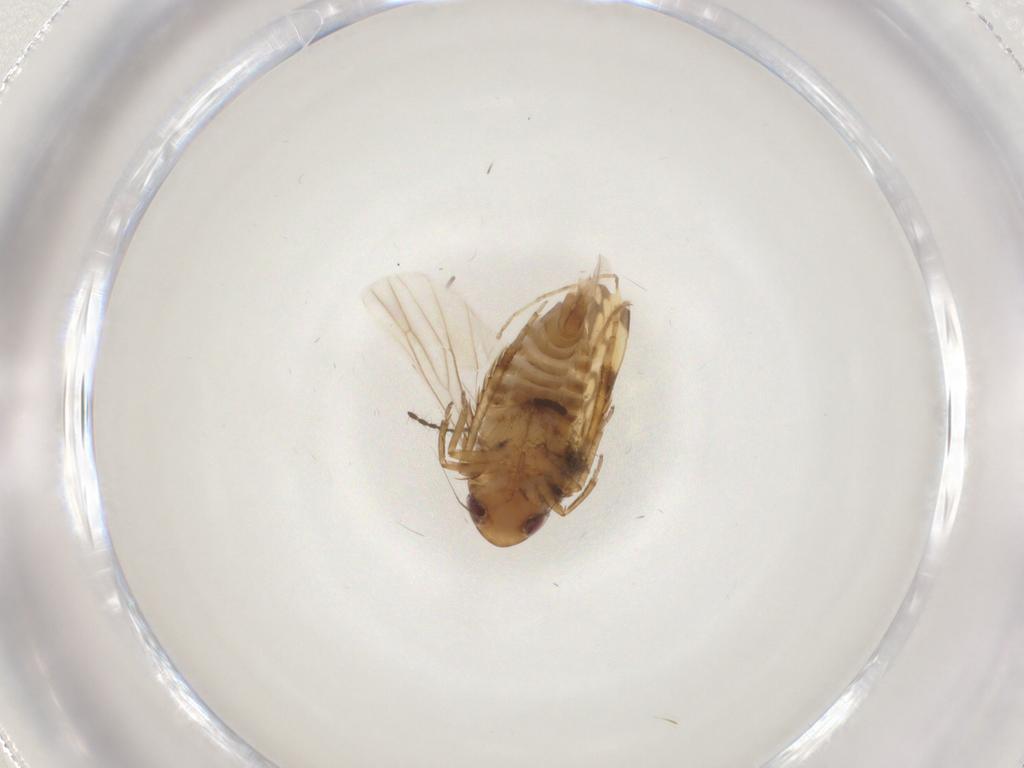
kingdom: Animalia
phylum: Arthropoda
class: Insecta
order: Hemiptera
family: Cicadellidae
